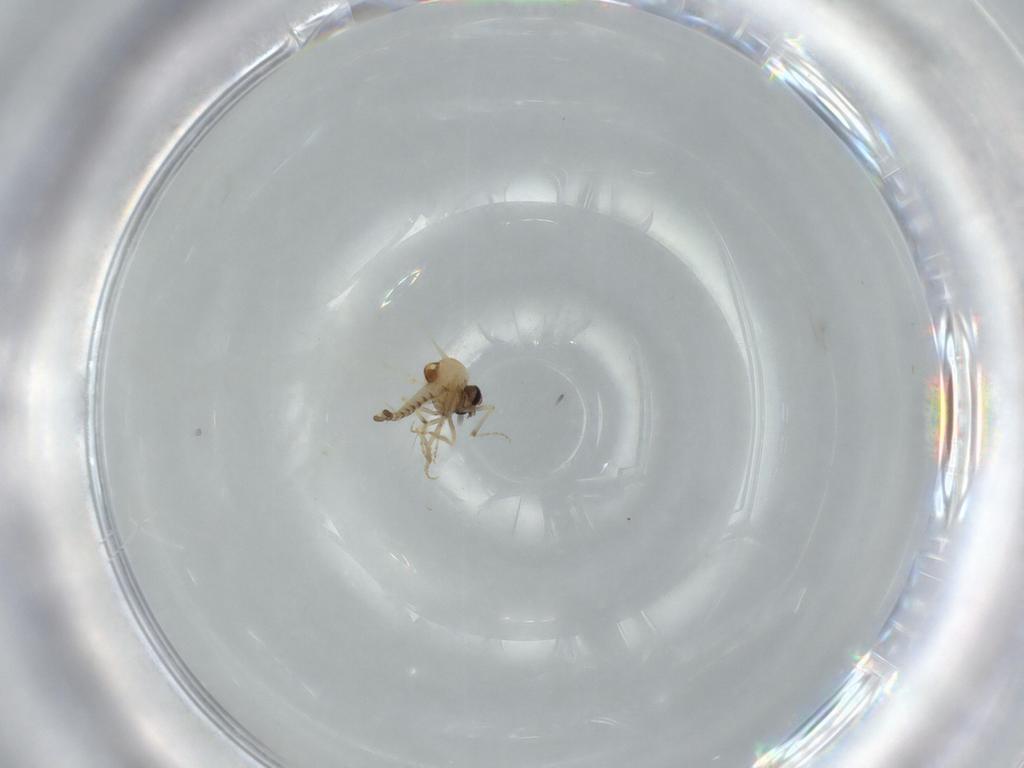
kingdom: Animalia
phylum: Arthropoda
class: Insecta
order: Diptera
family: Ceratopogonidae
